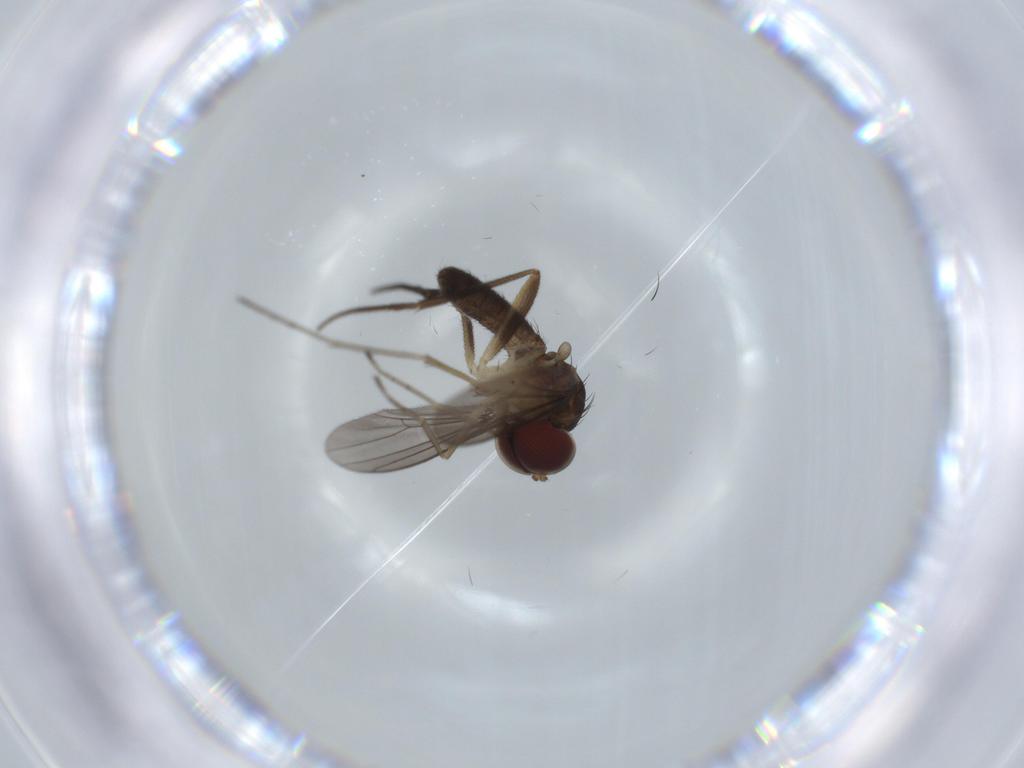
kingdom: Animalia
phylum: Arthropoda
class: Insecta
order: Diptera
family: Dolichopodidae
